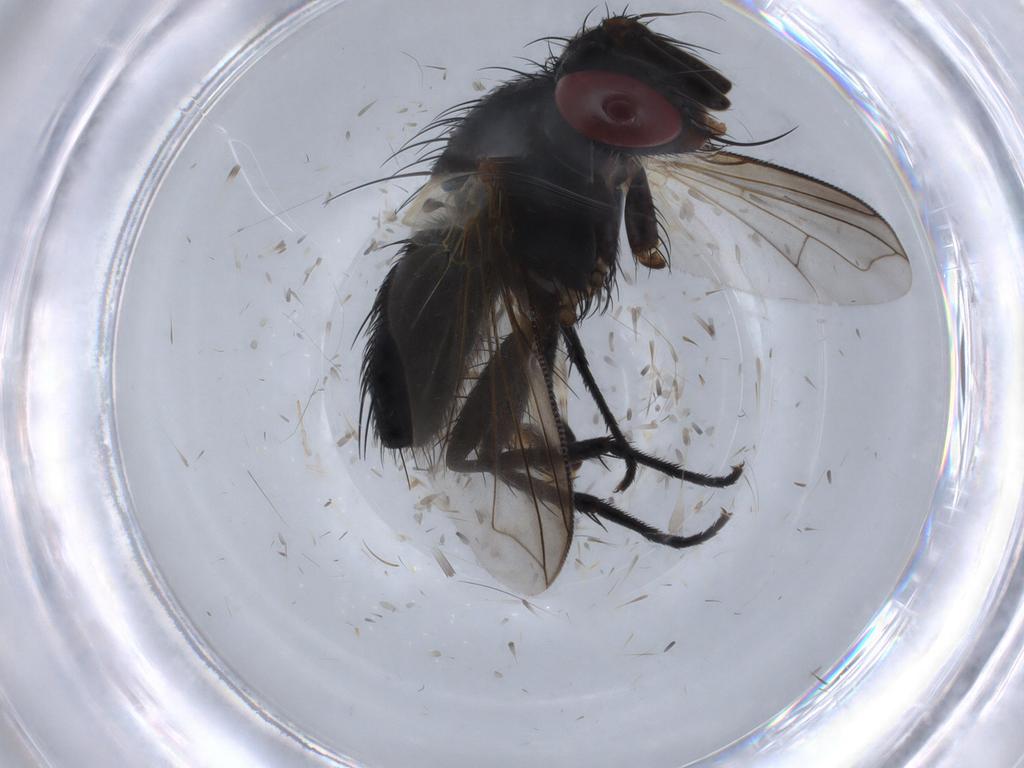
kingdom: Animalia
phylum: Arthropoda
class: Insecta
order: Diptera
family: Tachinidae
